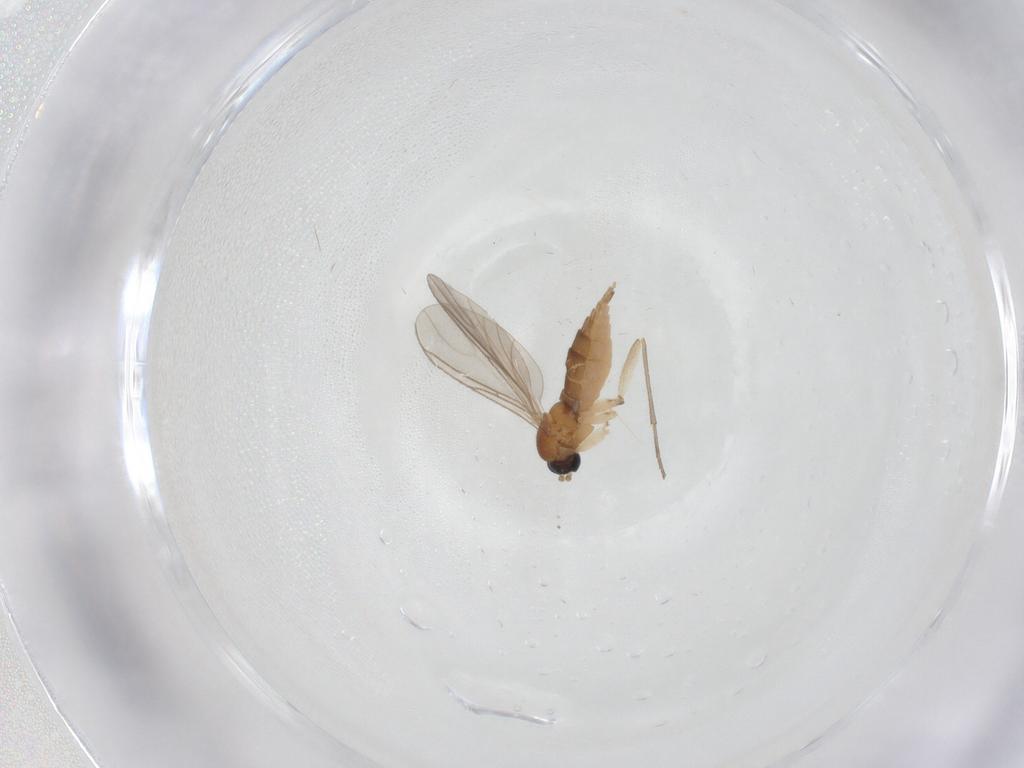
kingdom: Animalia
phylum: Arthropoda
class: Insecta
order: Diptera
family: Sciaridae
